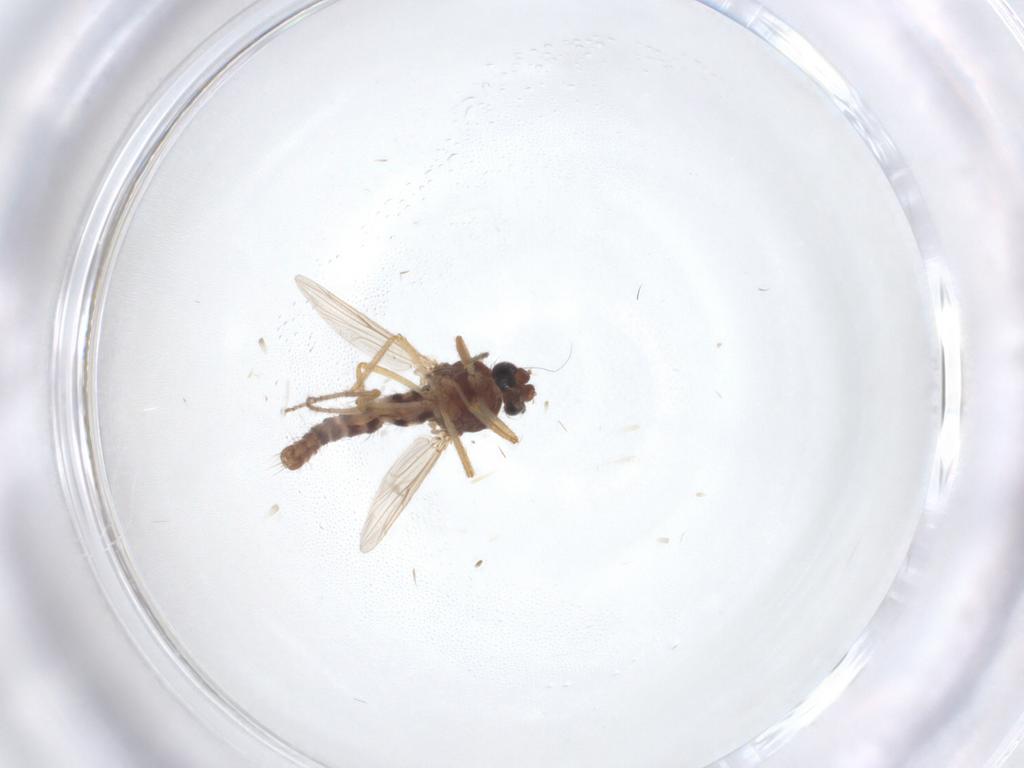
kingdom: Animalia
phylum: Arthropoda
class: Insecta
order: Diptera
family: Ceratopogonidae
